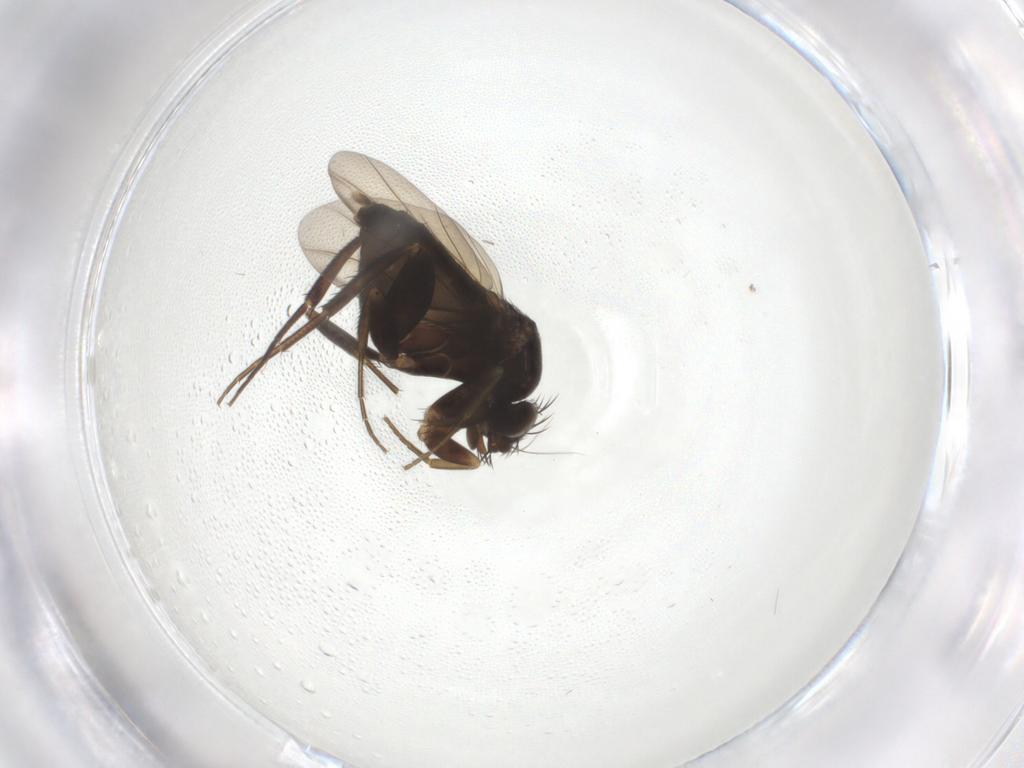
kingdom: Animalia
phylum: Arthropoda
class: Insecta
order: Diptera
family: Phoridae
